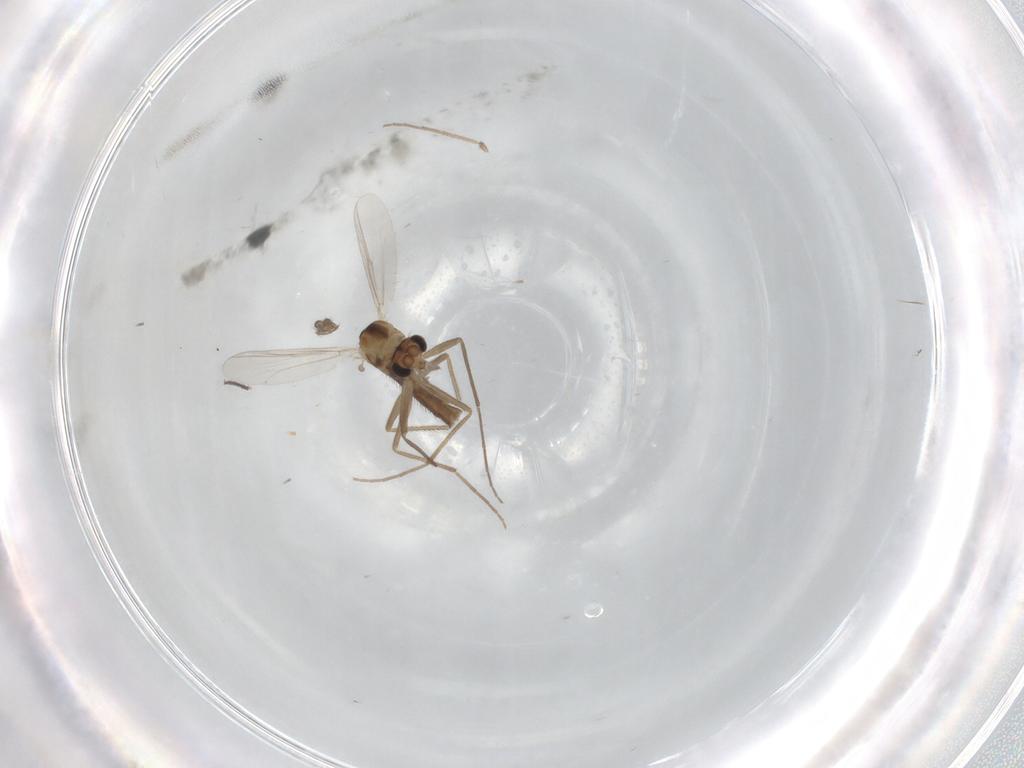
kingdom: Animalia
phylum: Arthropoda
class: Insecta
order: Diptera
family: Chironomidae
